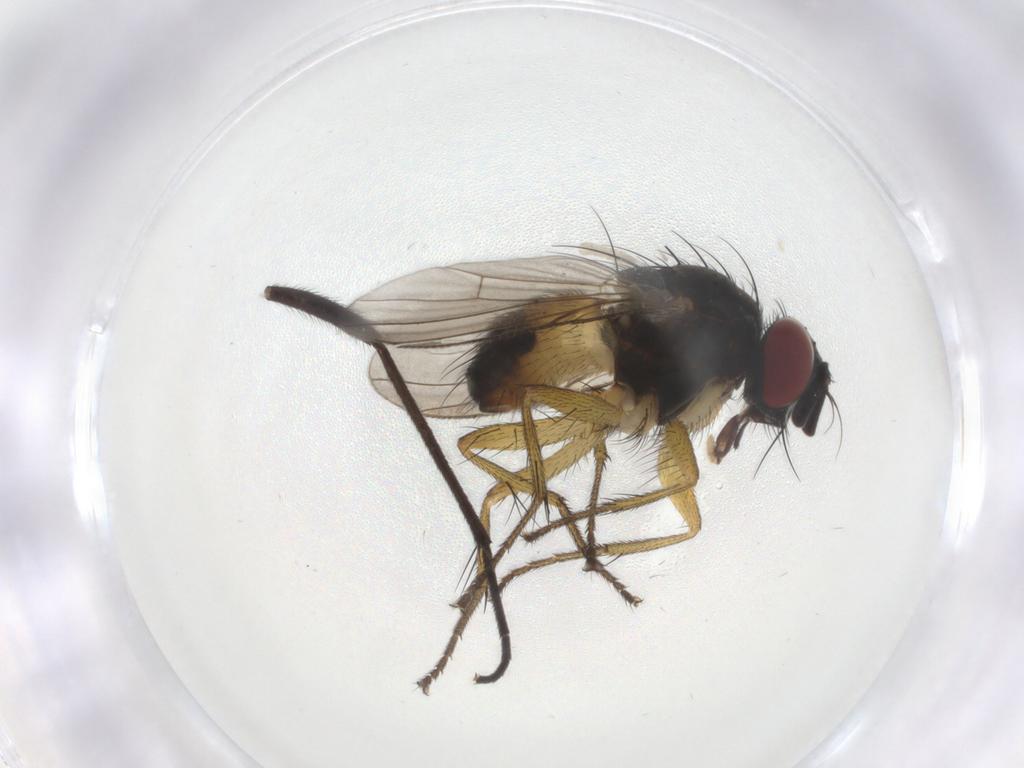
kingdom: Animalia
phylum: Arthropoda
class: Insecta
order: Diptera
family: Muscidae
